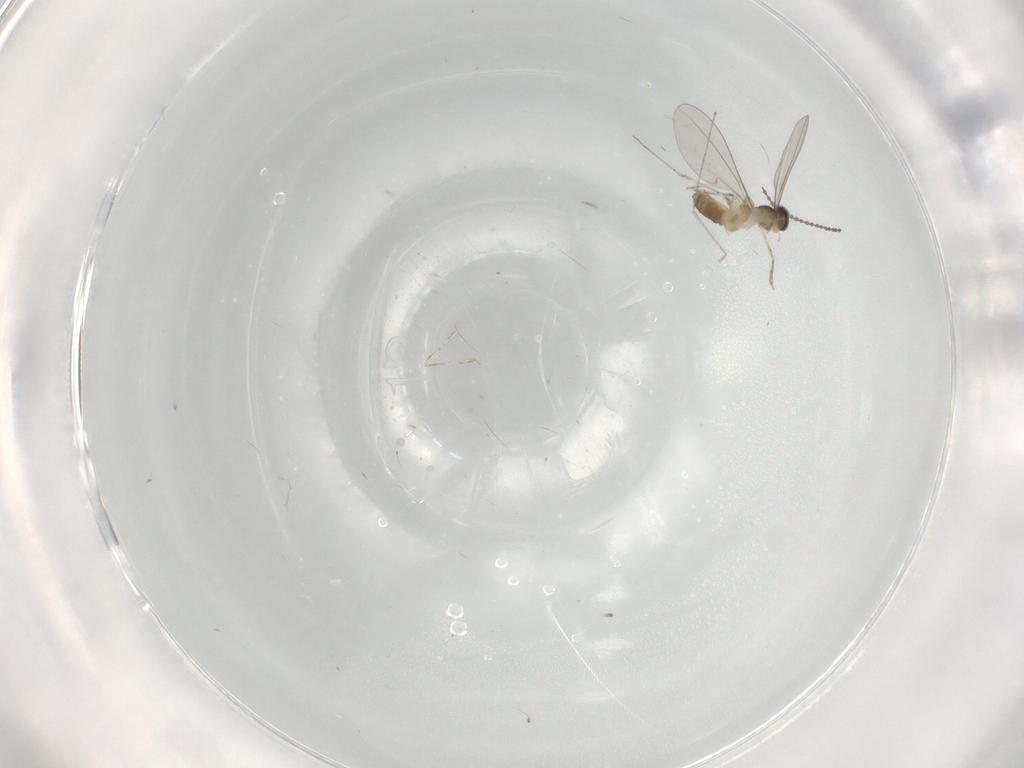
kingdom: Animalia
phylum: Arthropoda
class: Insecta
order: Diptera
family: Cecidomyiidae
